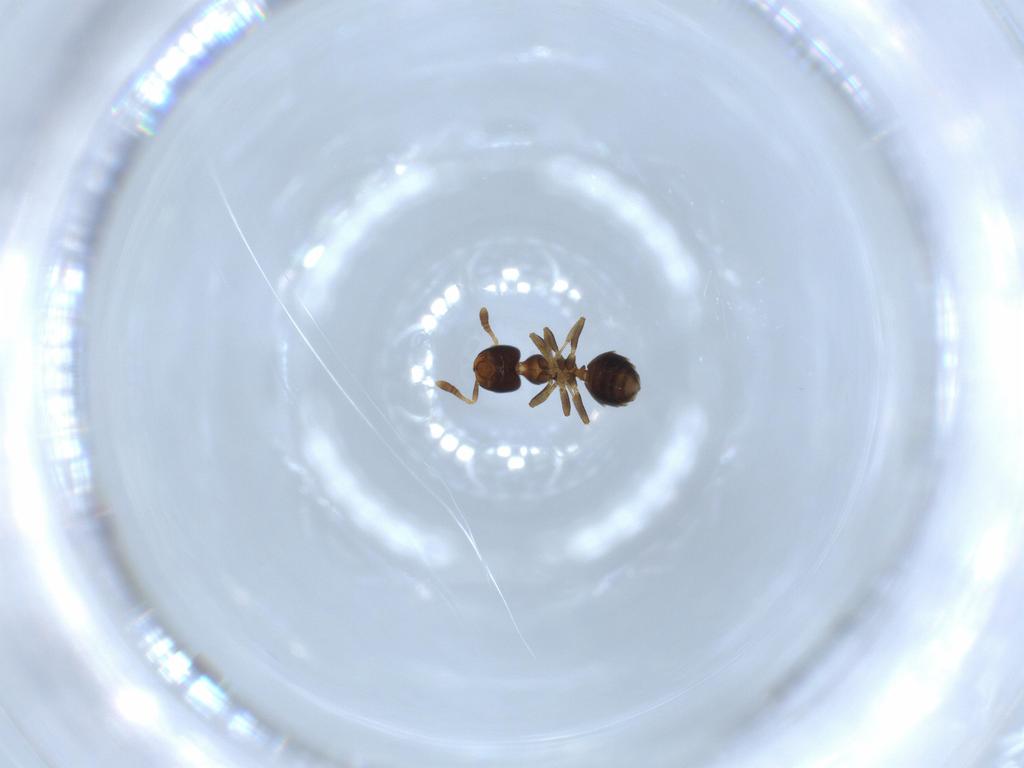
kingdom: Animalia
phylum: Arthropoda
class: Insecta
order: Hymenoptera
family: Formicidae
